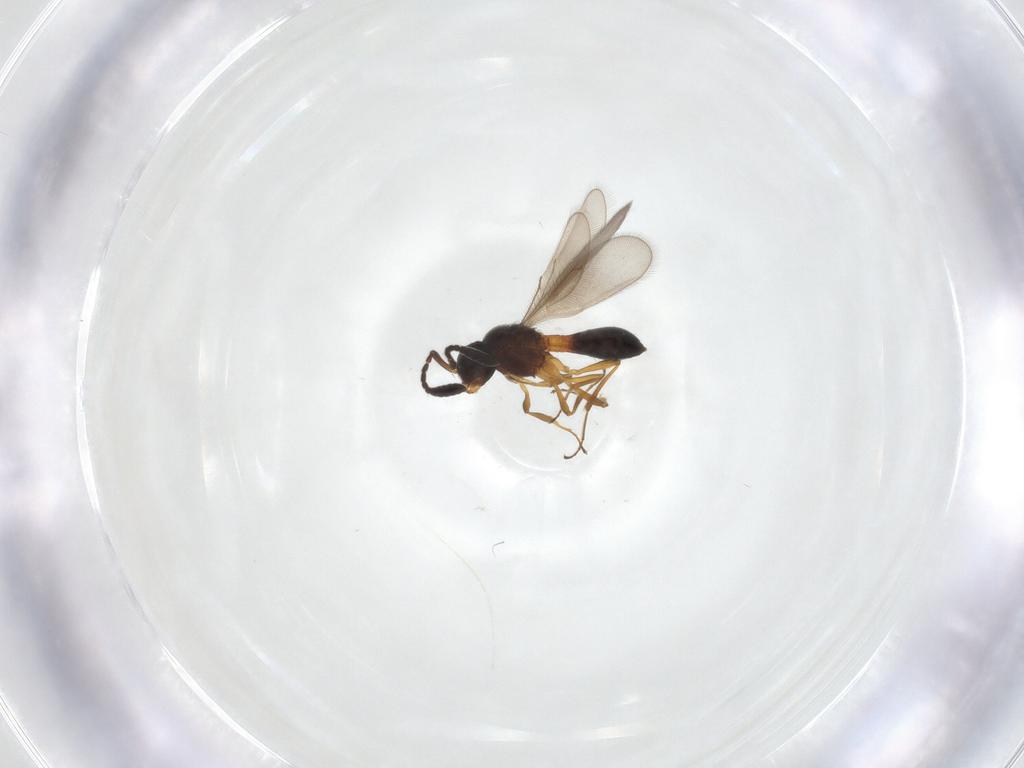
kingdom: Animalia
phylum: Arthropoda
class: Insecta
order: Hymenoptera
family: Scelionidae
